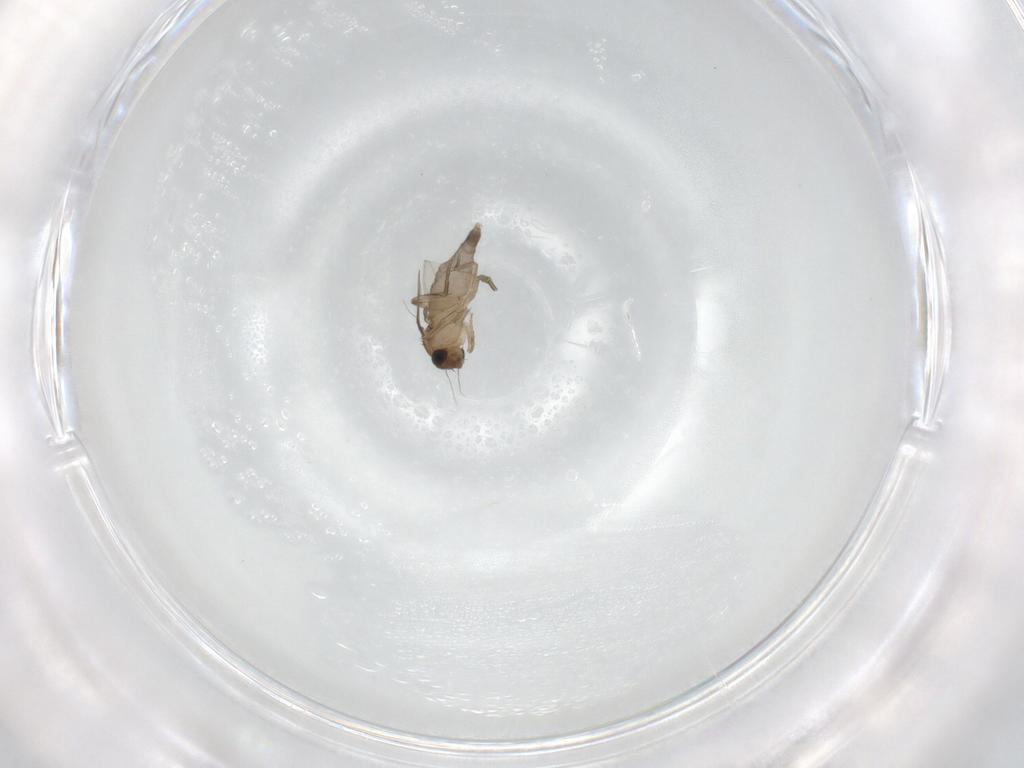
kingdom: Animalia
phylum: Arthropoda
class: Insecta
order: Diptera
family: Phoridae
